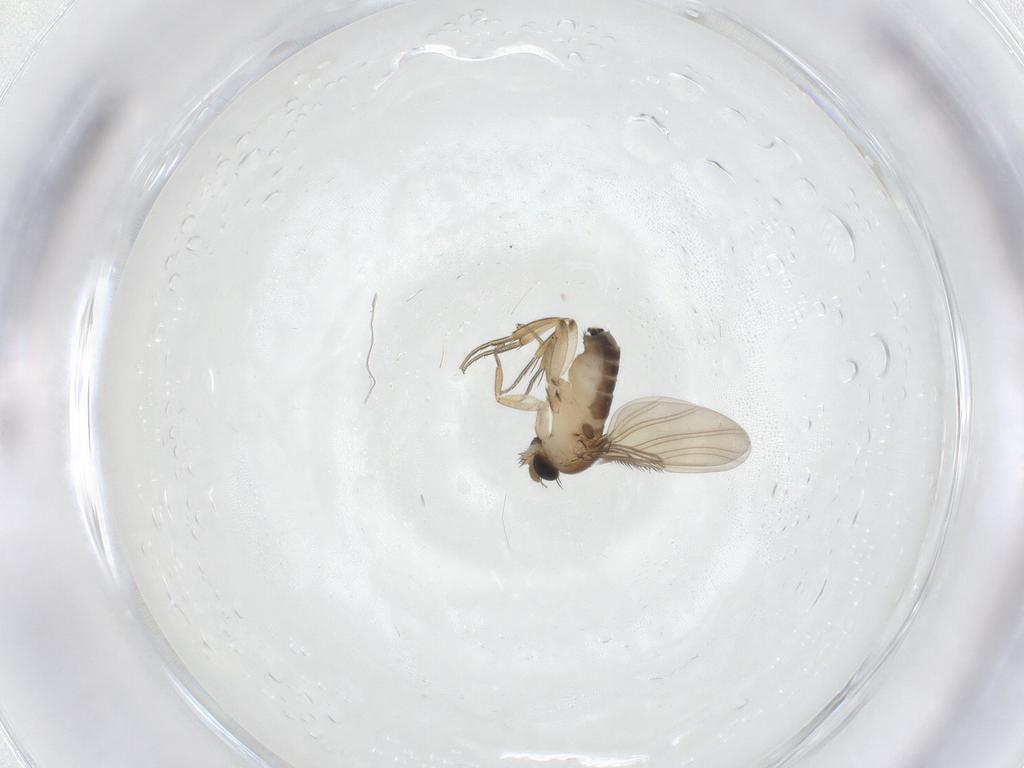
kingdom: Animalia
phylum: Arthropoda
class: Insecta
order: Diptera
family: Phoridae
